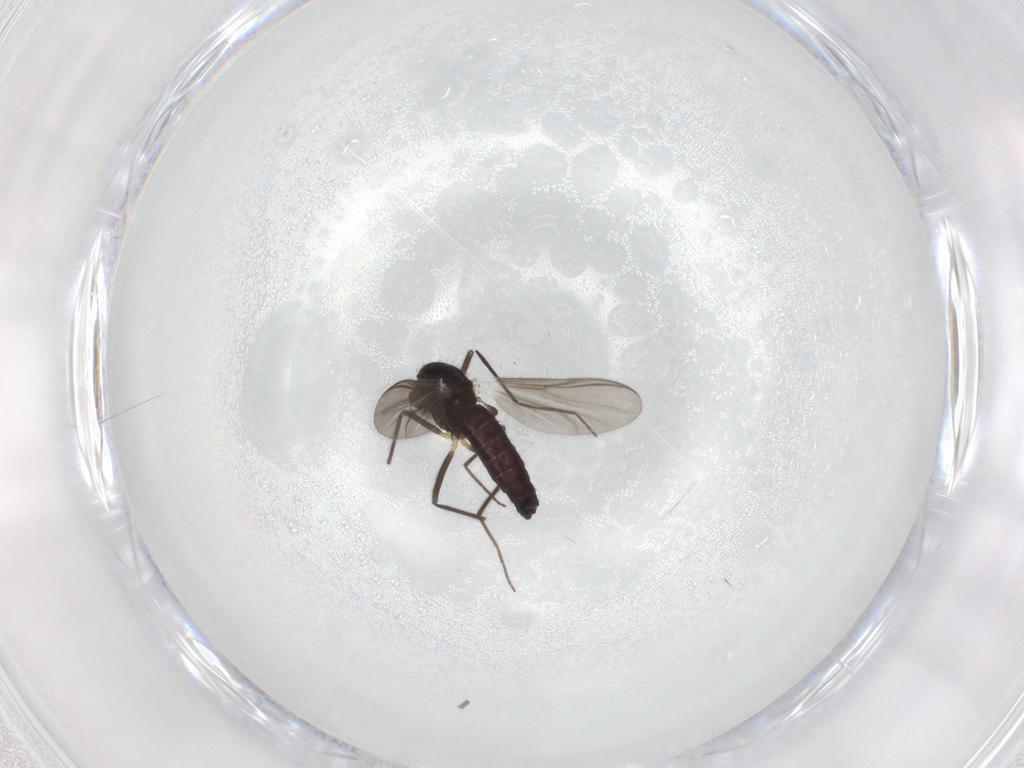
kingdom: Animalia
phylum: Arthropoda
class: Insecta
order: Diptera
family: Chironomidae
